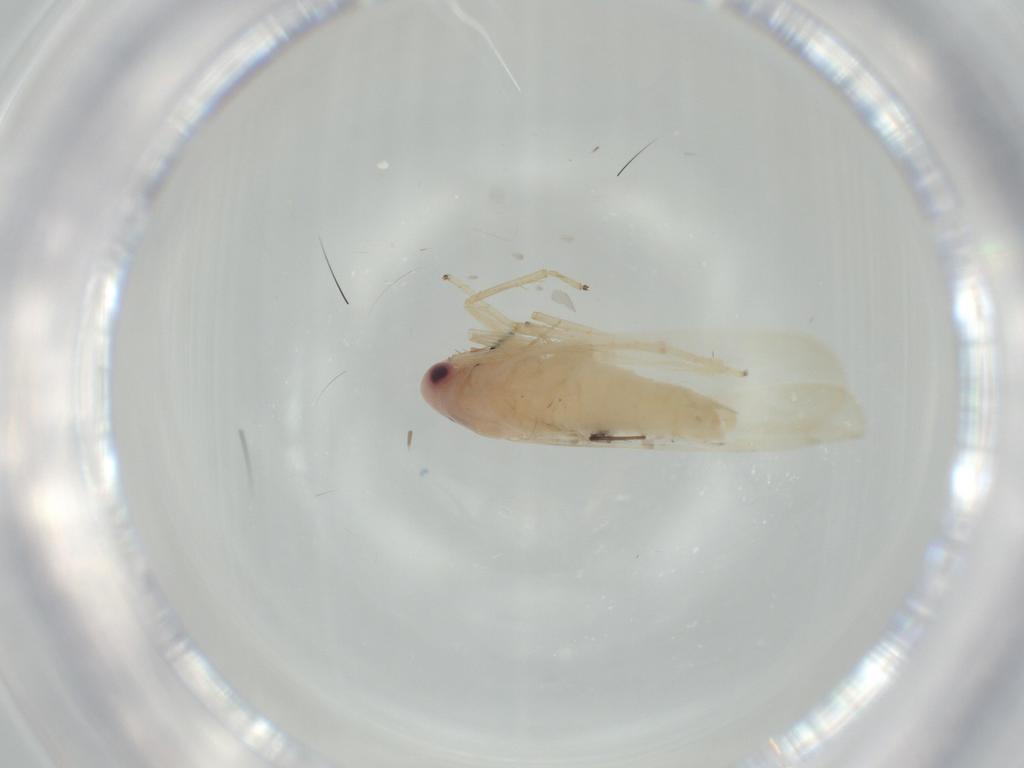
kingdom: Animalia
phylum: Arthropoda
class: Insecta
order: Hemiptera
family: Cicadellidae
